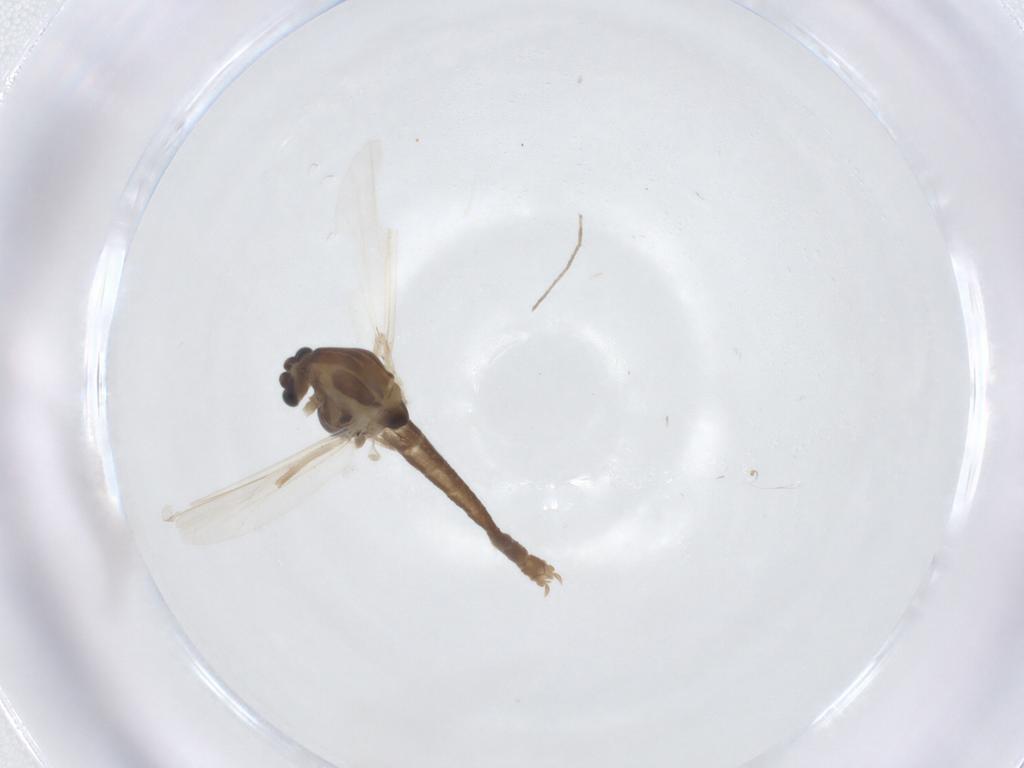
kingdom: Animalia
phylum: Arthropoda
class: Insecta
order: Diptera
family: Chironomidae
